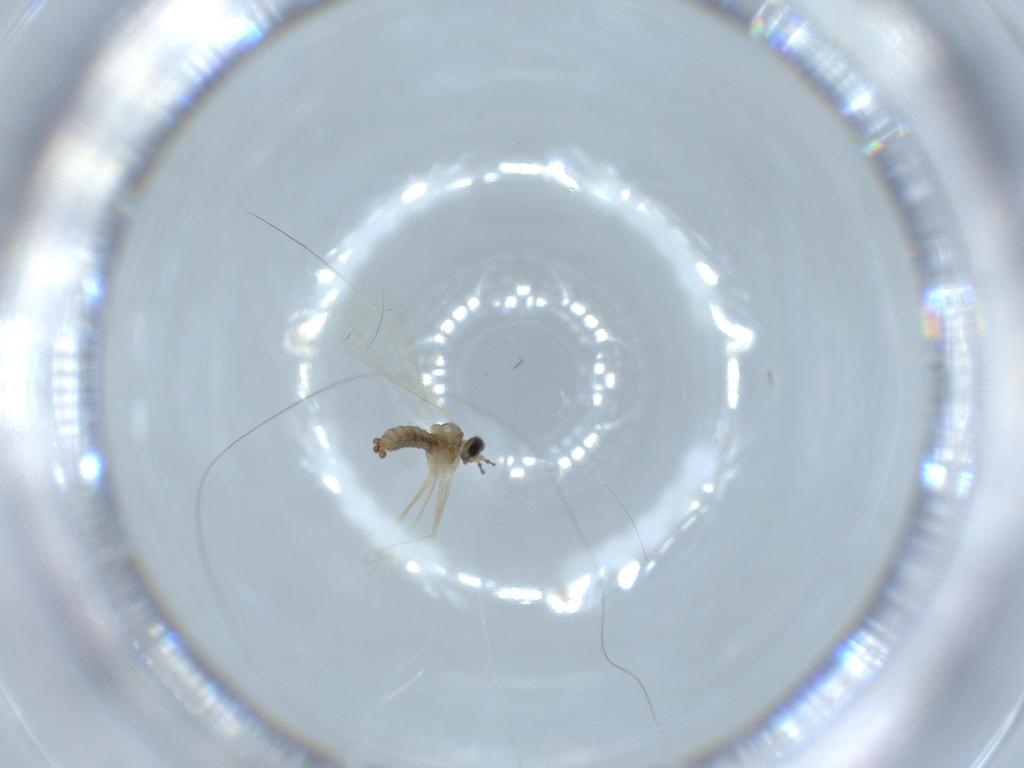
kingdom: Animalia
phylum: Arthropoda
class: Insecta
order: Diptera
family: Cecidomyiidae
